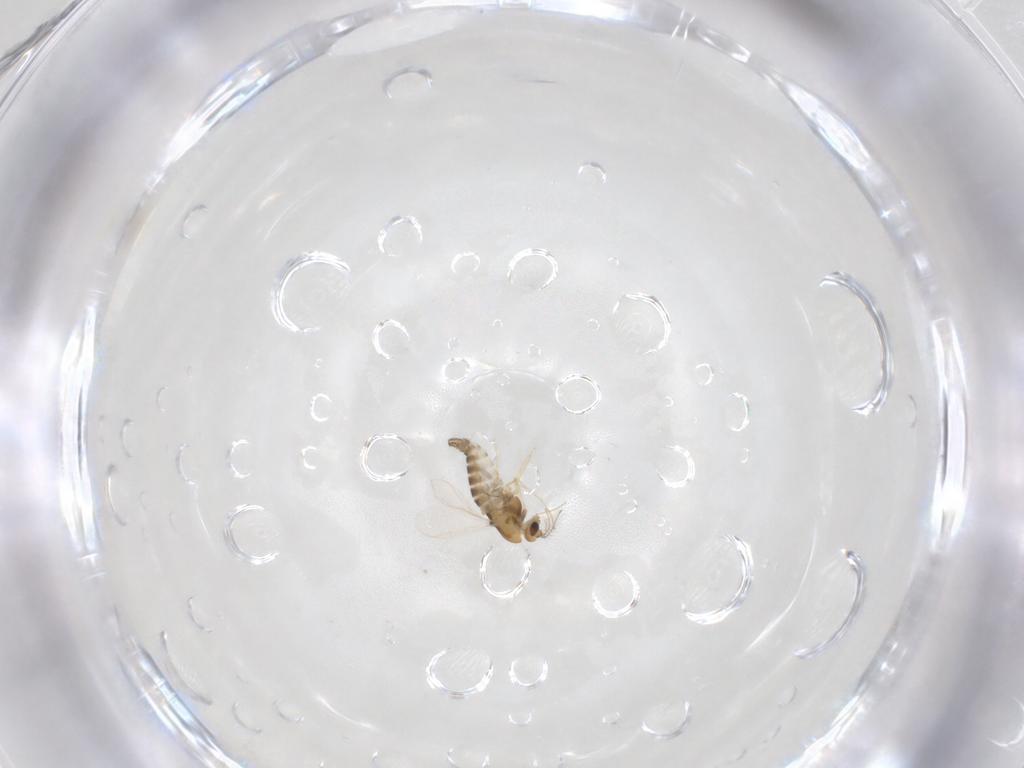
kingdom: Animalia
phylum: Arthropoda
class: Insecta
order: Diptera
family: Chironomidae
